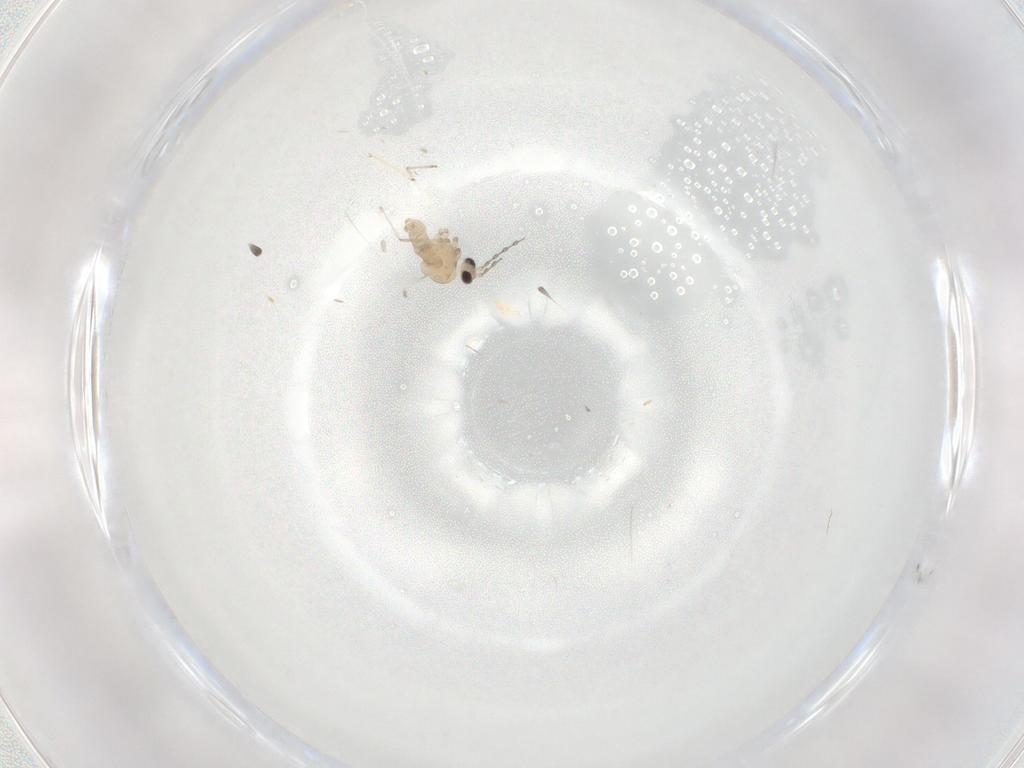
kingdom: Animalia
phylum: Arthropoda
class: Insecta
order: Diptera
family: Cecidomyiidae
